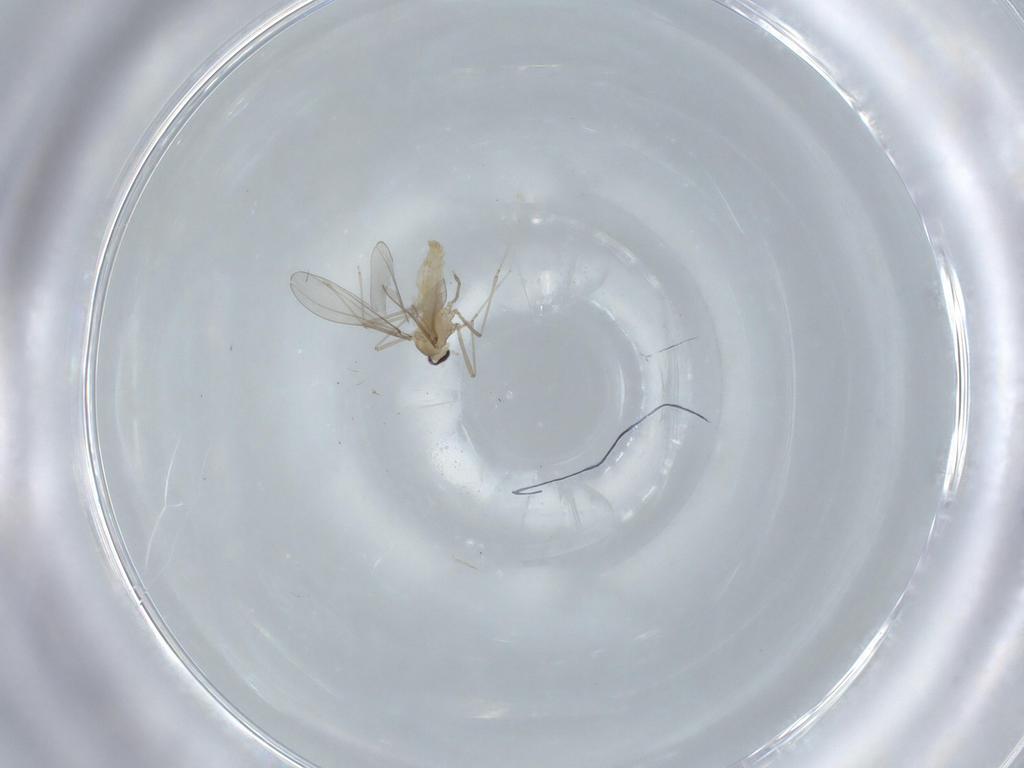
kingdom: Animalia
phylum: Arthropoda
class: Insecta
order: Diptera
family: Cecidomyiidae
